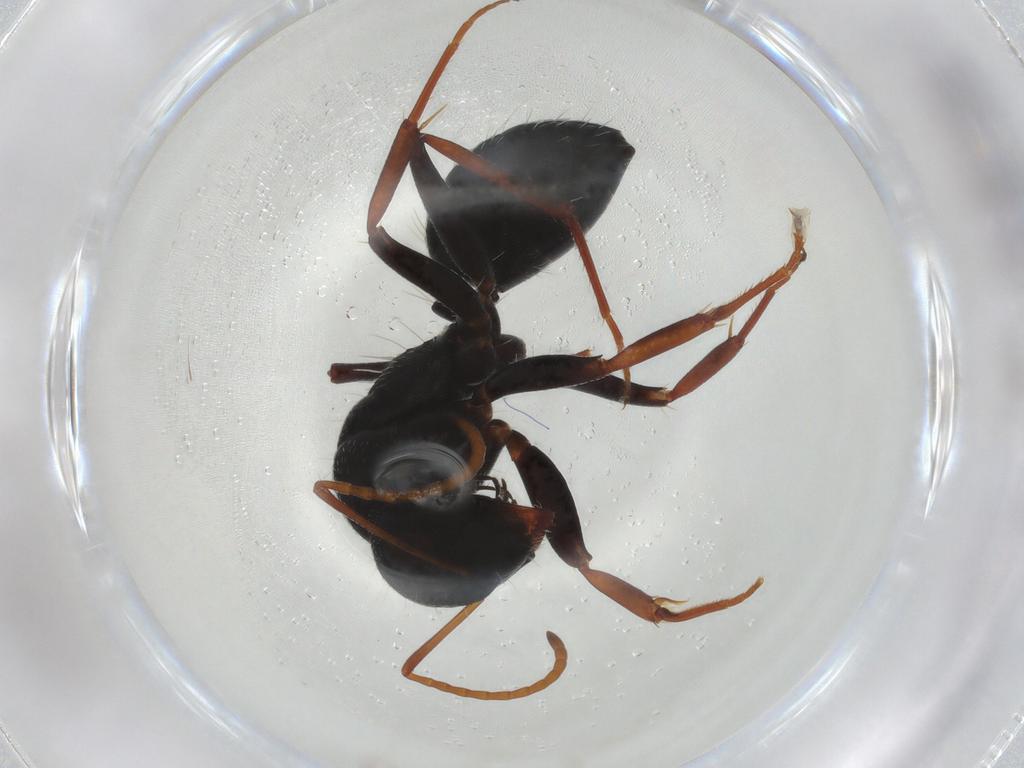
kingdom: Animalia
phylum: Arthropoda
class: Insecta
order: Hymenoptera
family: Formicidae
